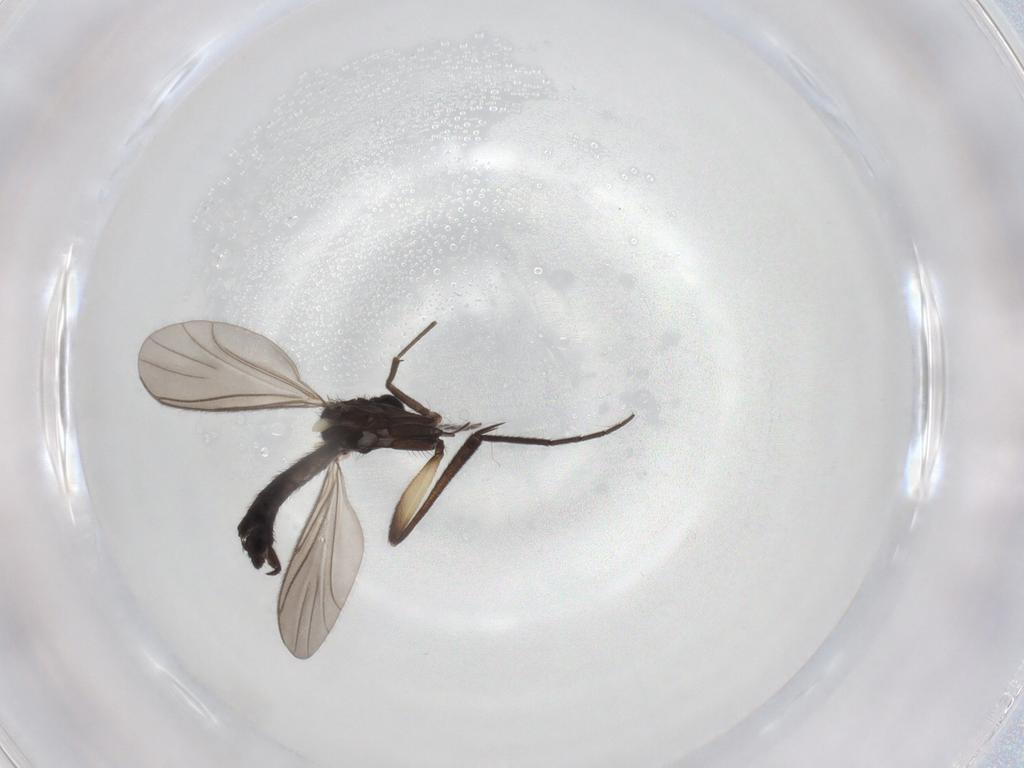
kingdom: Animalia
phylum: Arthropoda
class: Insecta
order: Diptera
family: Keroplatidae
